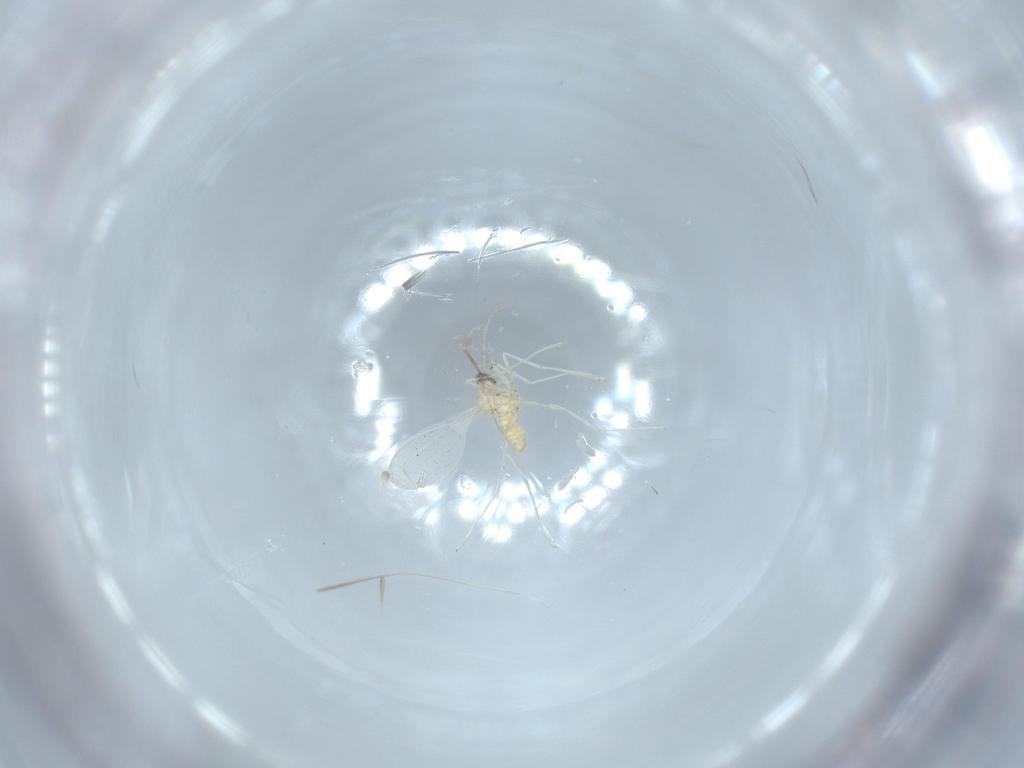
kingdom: Animalia
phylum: Arthropoda
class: Insecta
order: Diptera
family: Cecidomyiidae
